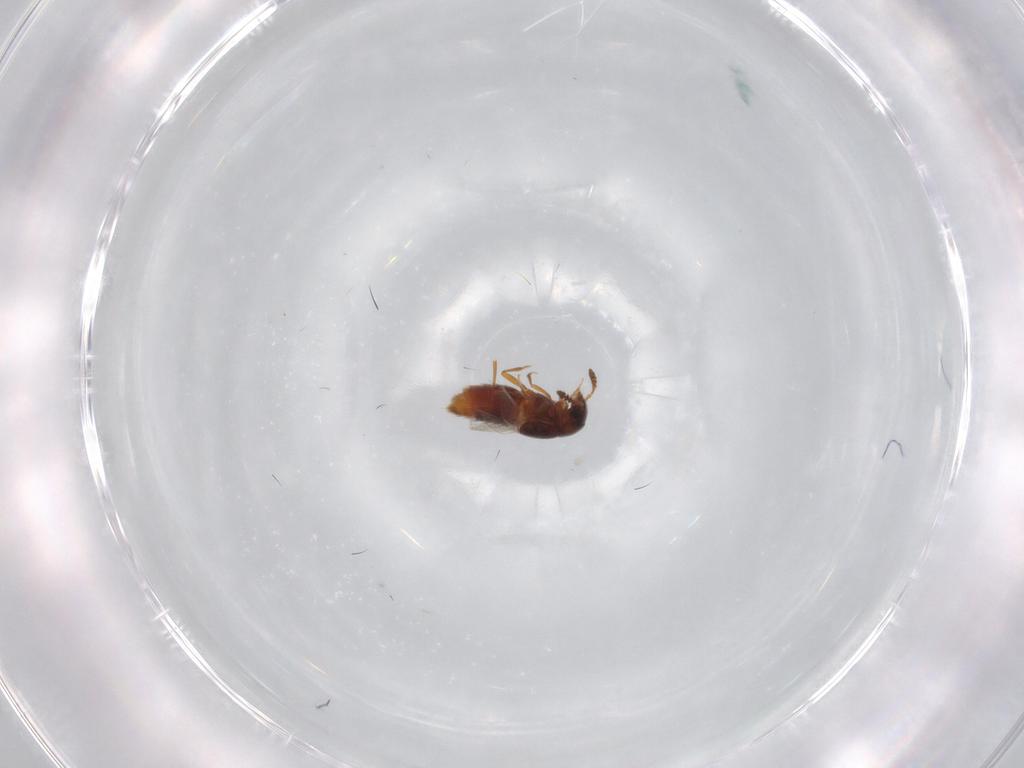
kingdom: Animalia
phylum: Arthropoda
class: Insecta
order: Coleoptera
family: Staphylinidae
